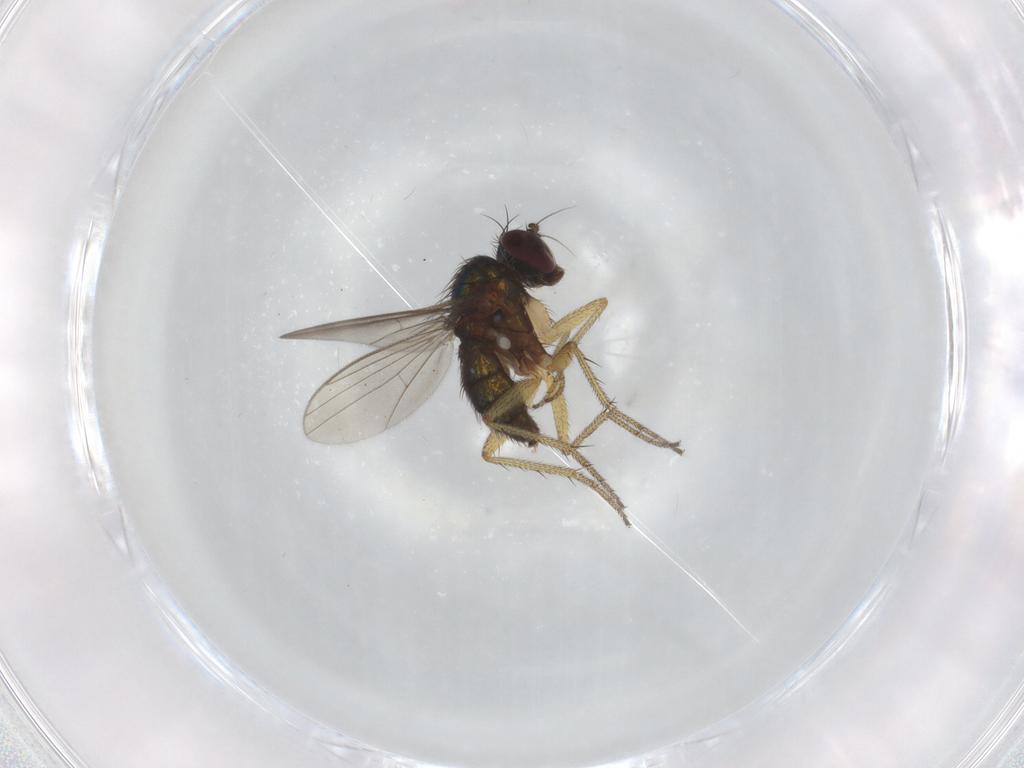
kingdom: Animalia
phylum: Arthropoda
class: Insecta
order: Diptera
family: Dolichopodidae
